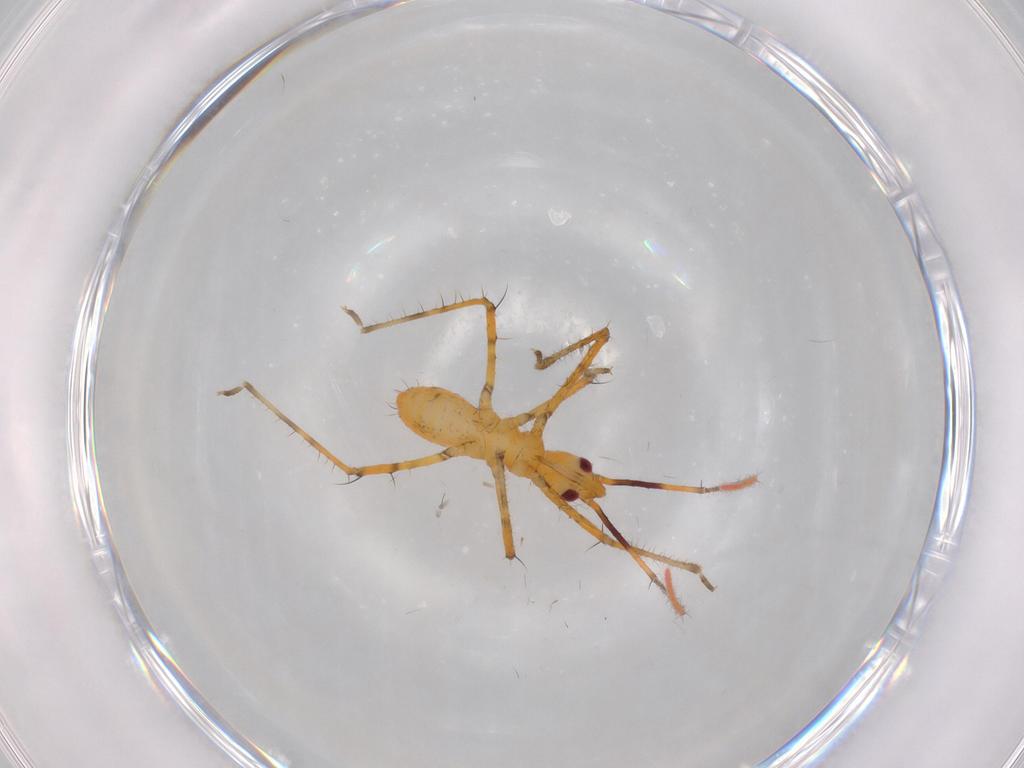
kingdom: Animalia
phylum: Arthropoda
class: Insecta
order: Hemiptera
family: Reduviidae
